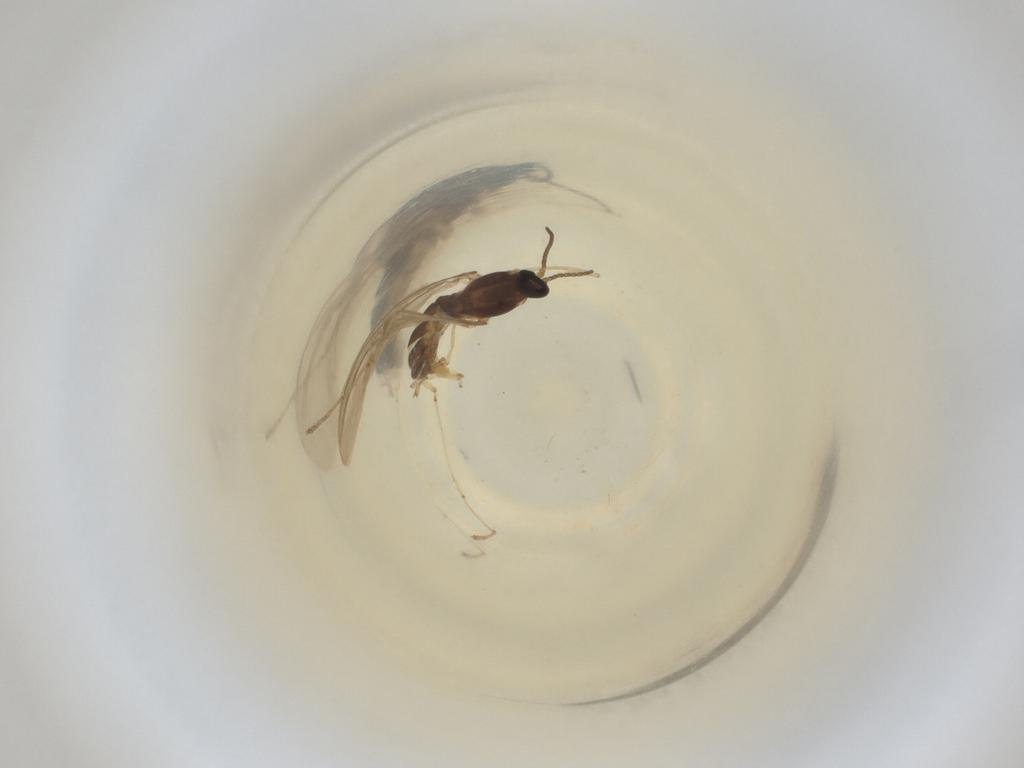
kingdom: Animalia
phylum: Arthropoda
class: Insecta
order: Diptera
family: Cecidomyiidae
